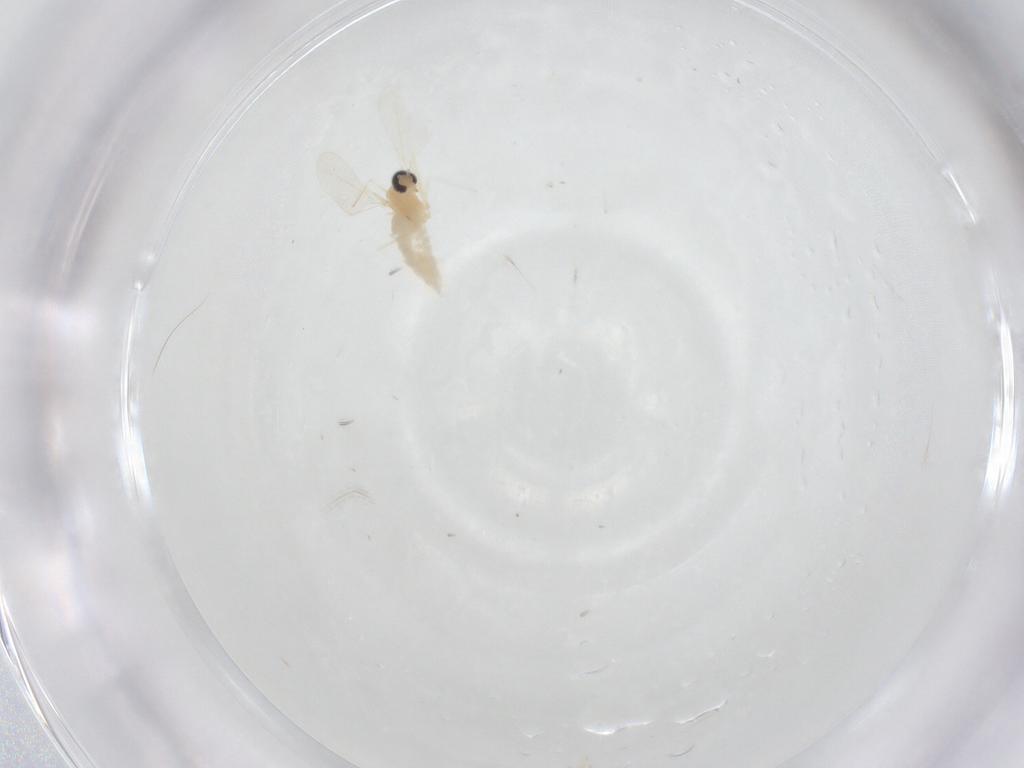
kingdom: Animalia
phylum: Arthropoda
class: Insecta
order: Diptera
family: Cecidomyiidae
